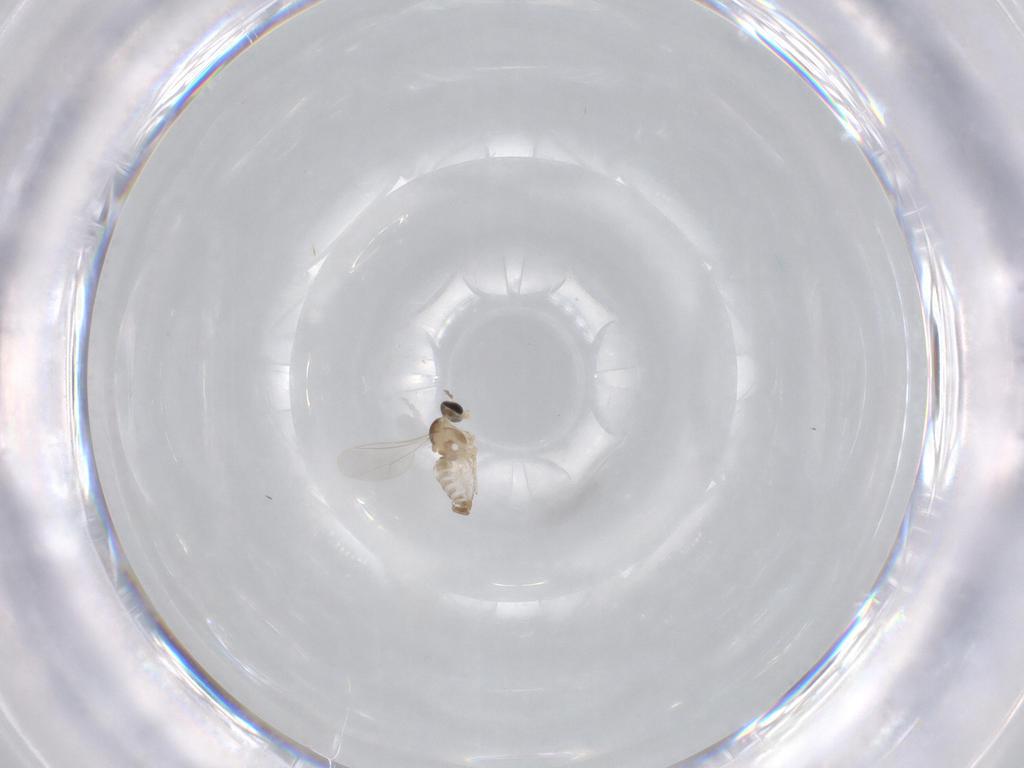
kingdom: Animalia
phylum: Arthropoda
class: Insecta
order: Diptera
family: Cecidomyiidae
